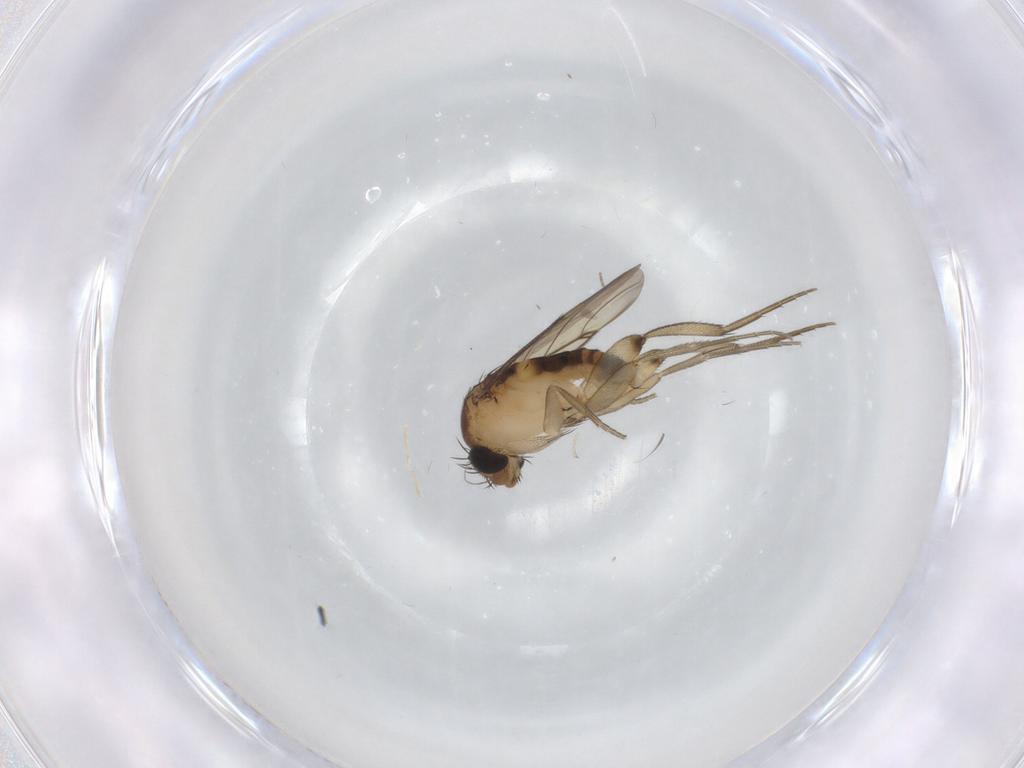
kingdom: Animalia
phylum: Arthropoda
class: Insecta
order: Diptera
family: Phoridae
